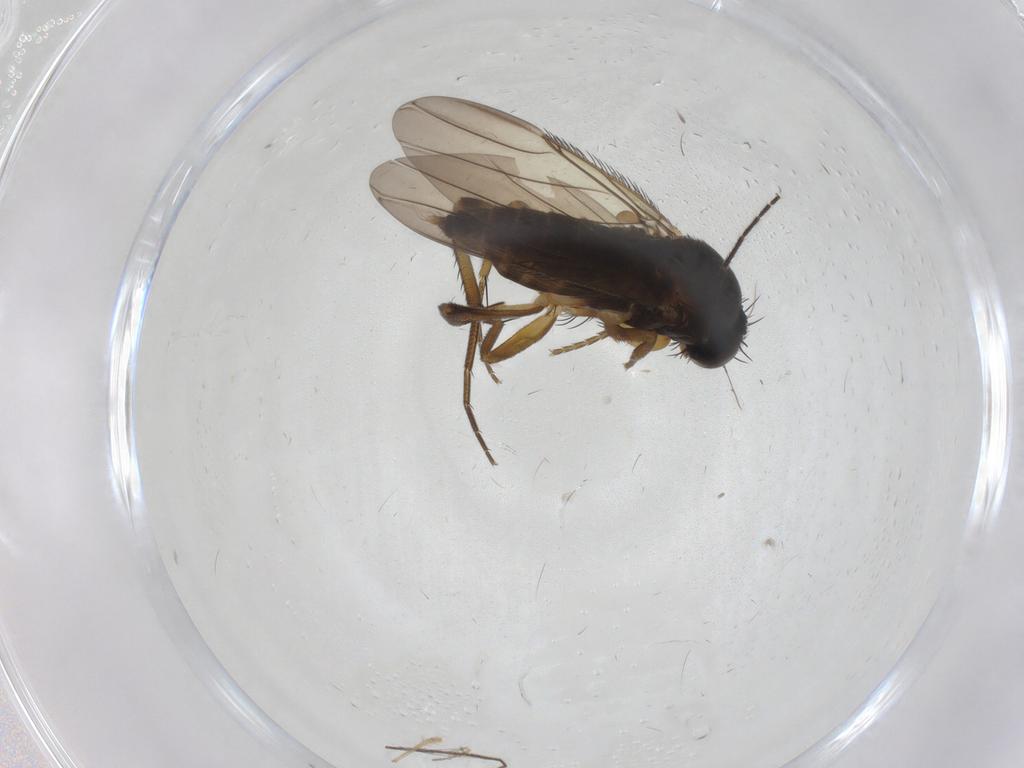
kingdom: Animalia
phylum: Arthropoda
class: Insecta
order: Diptera
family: Phoridae
